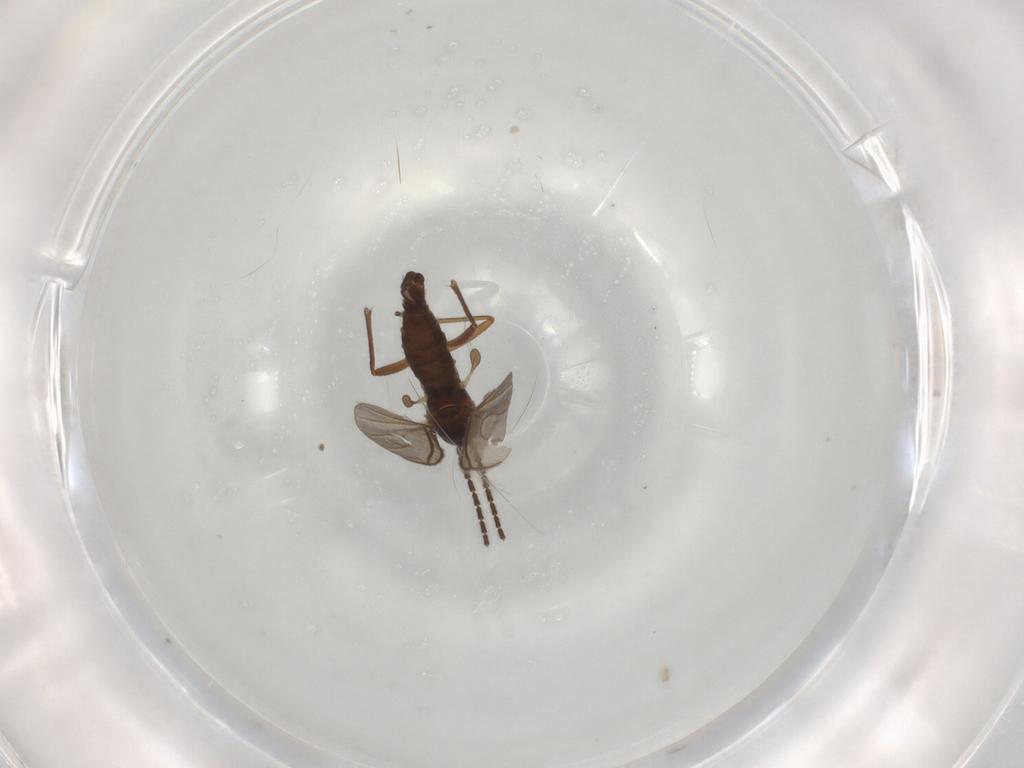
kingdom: Animalia
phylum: Arthropoda
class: Insecta
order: Diptera
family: Sciaridae
